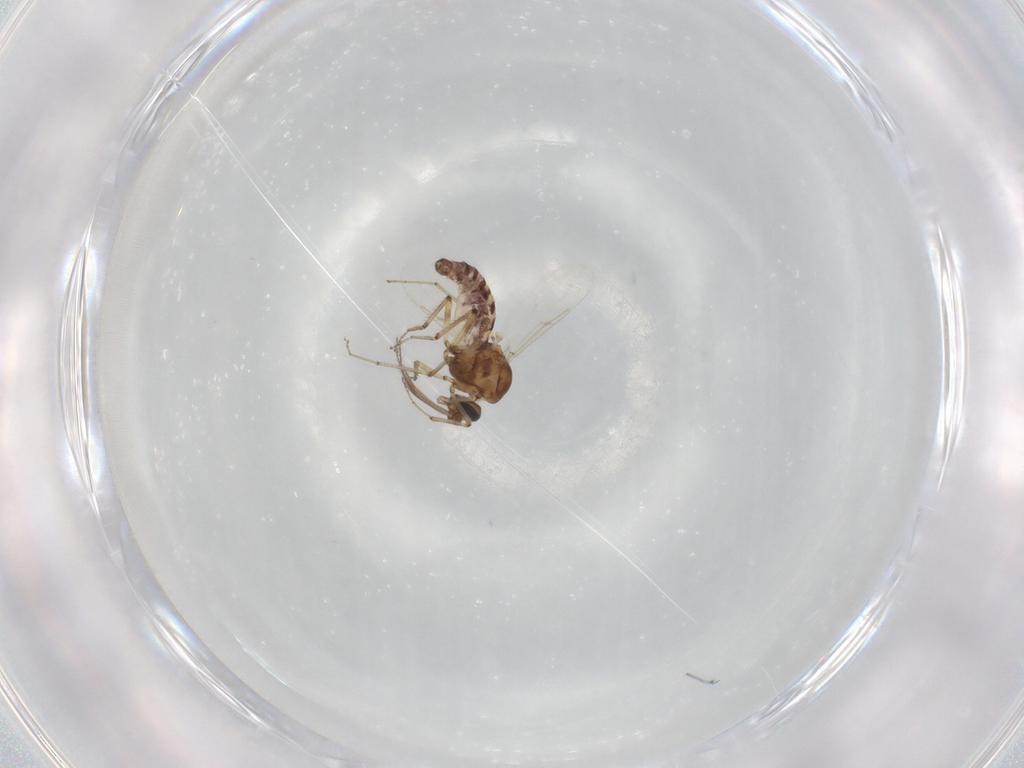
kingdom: Animalia
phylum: Arthropoda
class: Insecta
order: Diptera
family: Ceratopogonidae
